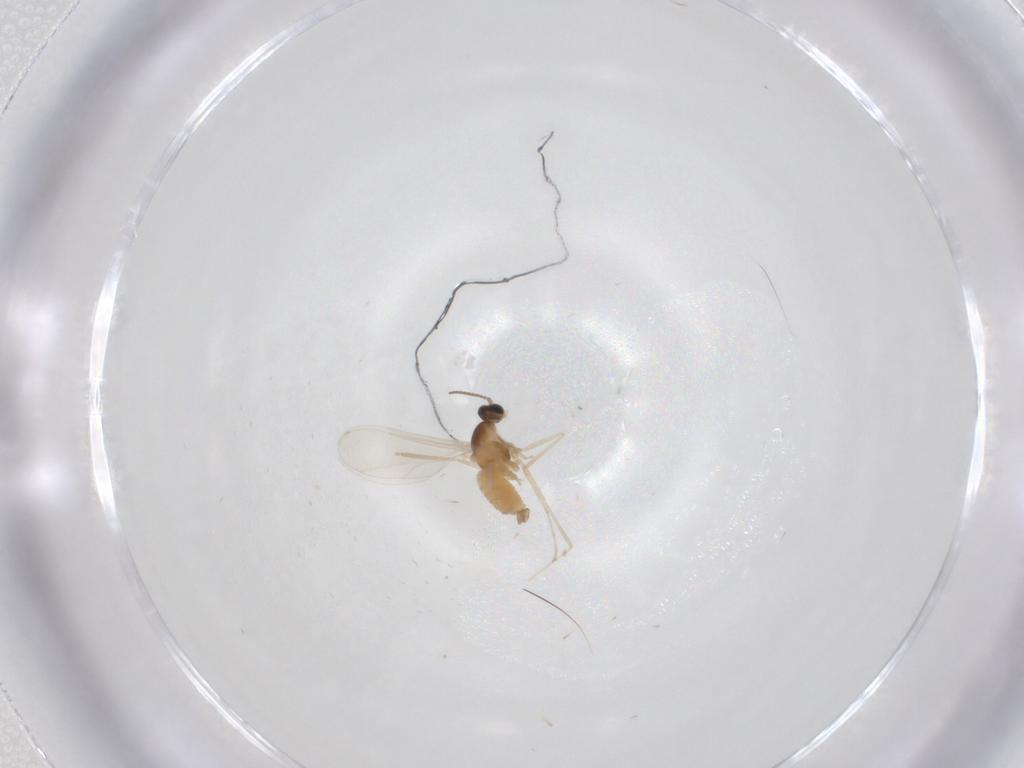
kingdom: Animalia
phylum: Arthropoda
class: Insecta
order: Diptera
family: Cecidomyiidae
